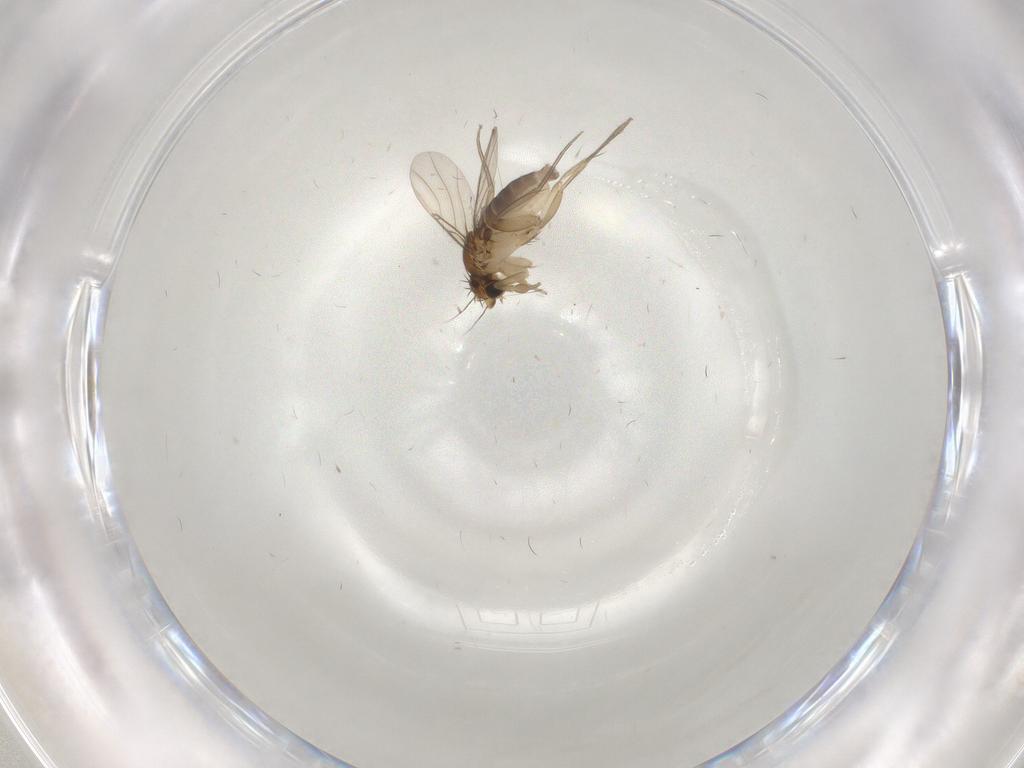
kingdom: Animalia
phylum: Arthropoda
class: Insecta
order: Diptera
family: Phoridae
